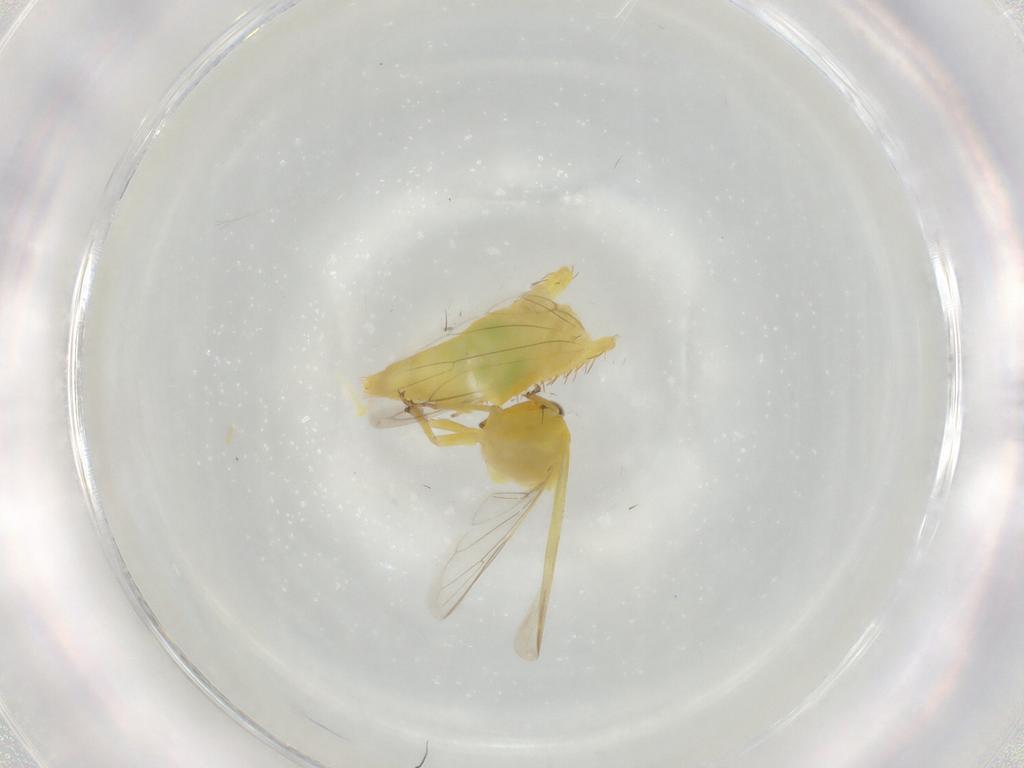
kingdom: Animalia
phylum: Arthropoda
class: Insecta
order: Hemiptera
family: Cicadellidae
